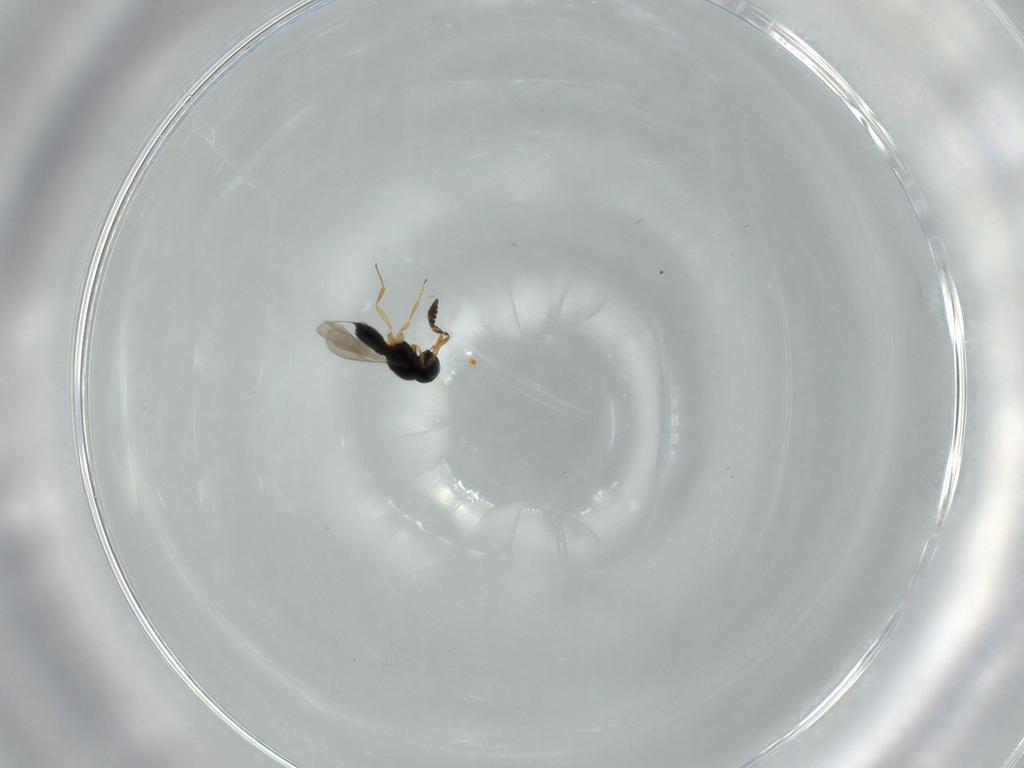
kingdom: Animalia
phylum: Arthropoda
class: Insecta
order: Hymenoptera
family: Scelionidae
